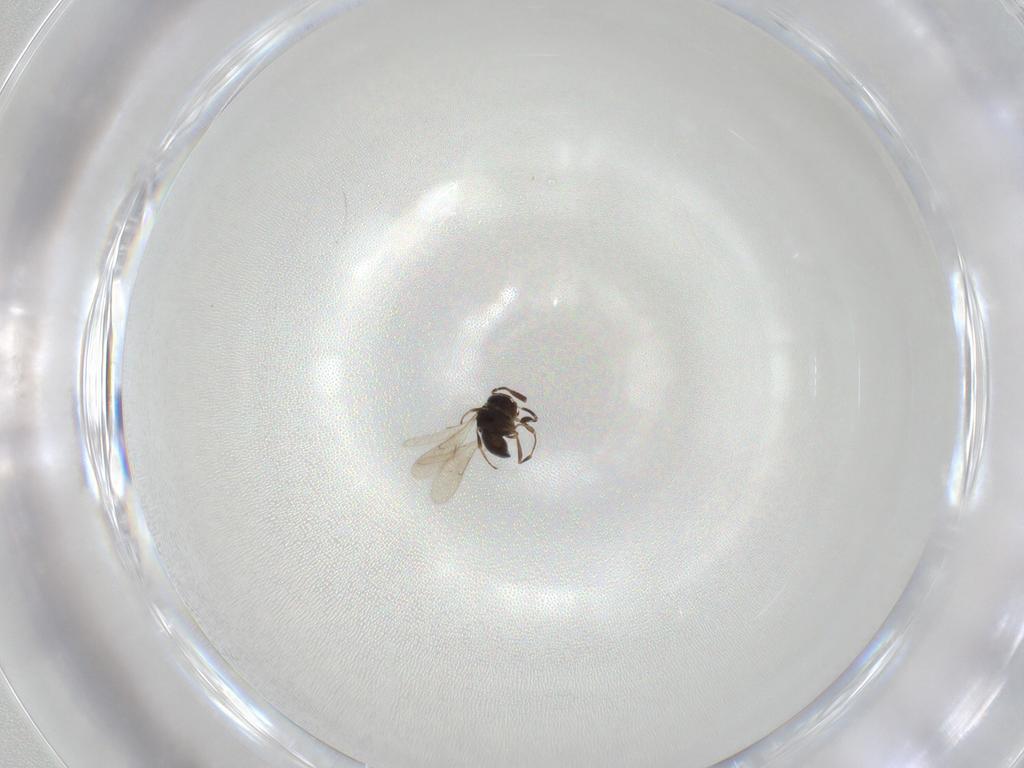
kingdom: Animalia
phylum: Arthropoda
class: Insecta
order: Hymenoptera
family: Scelionidae
